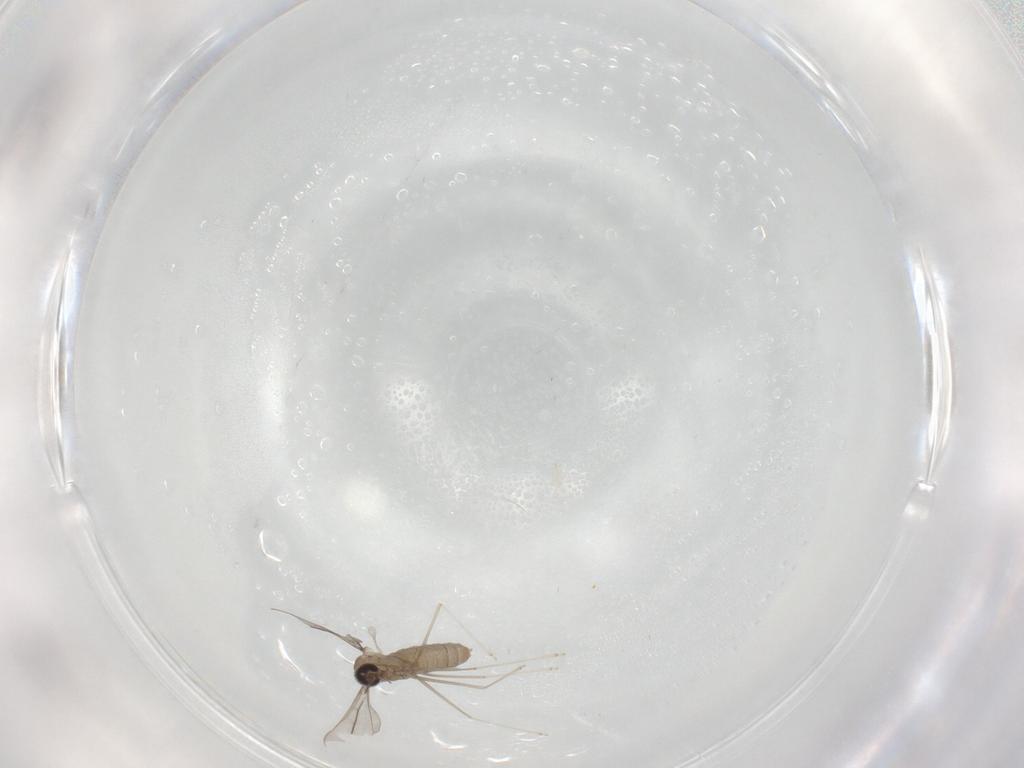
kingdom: Animalia
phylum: Arthropoda
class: Insecta
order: Diptera
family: Cecidomyiidae
